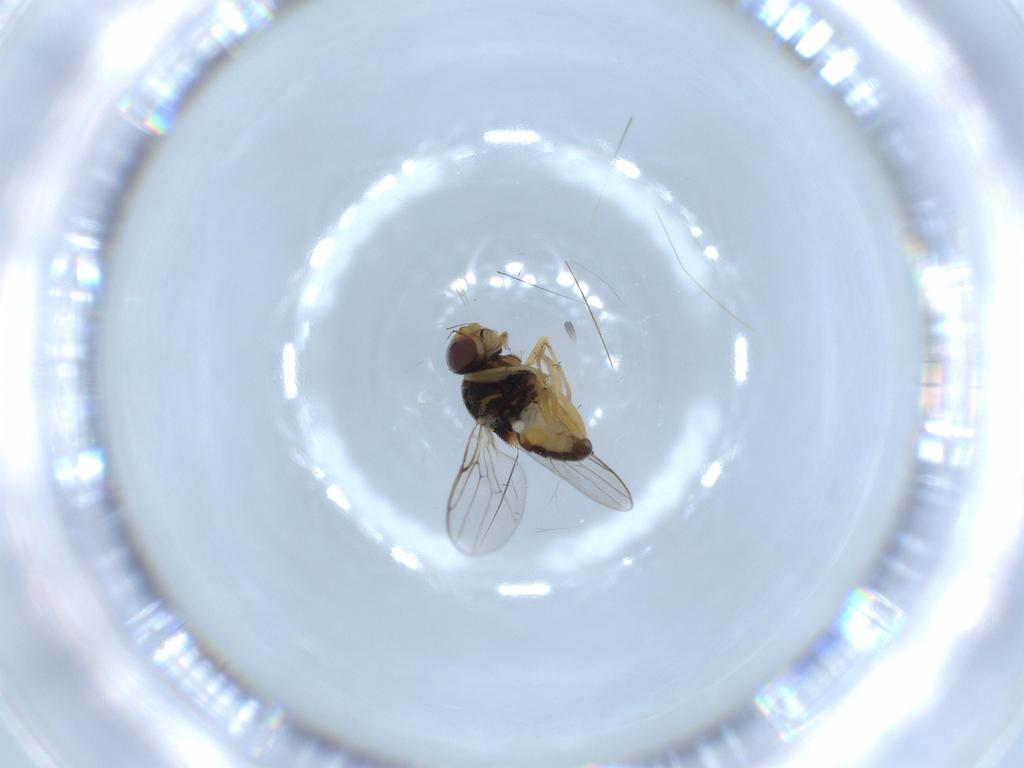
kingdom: Animalia
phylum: Arthropoda
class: Insecta
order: Diptera
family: Chloropidae
